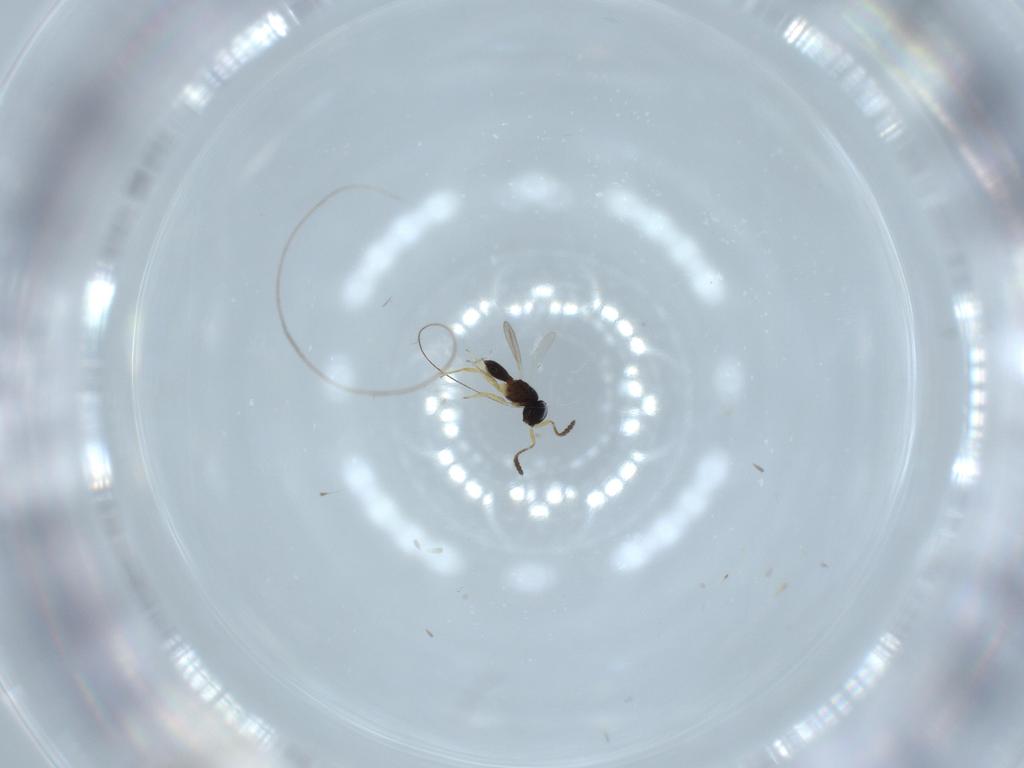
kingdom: Animalia
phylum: Arthropoda
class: Insecta
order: Hymenoptera
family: Scelionidae
